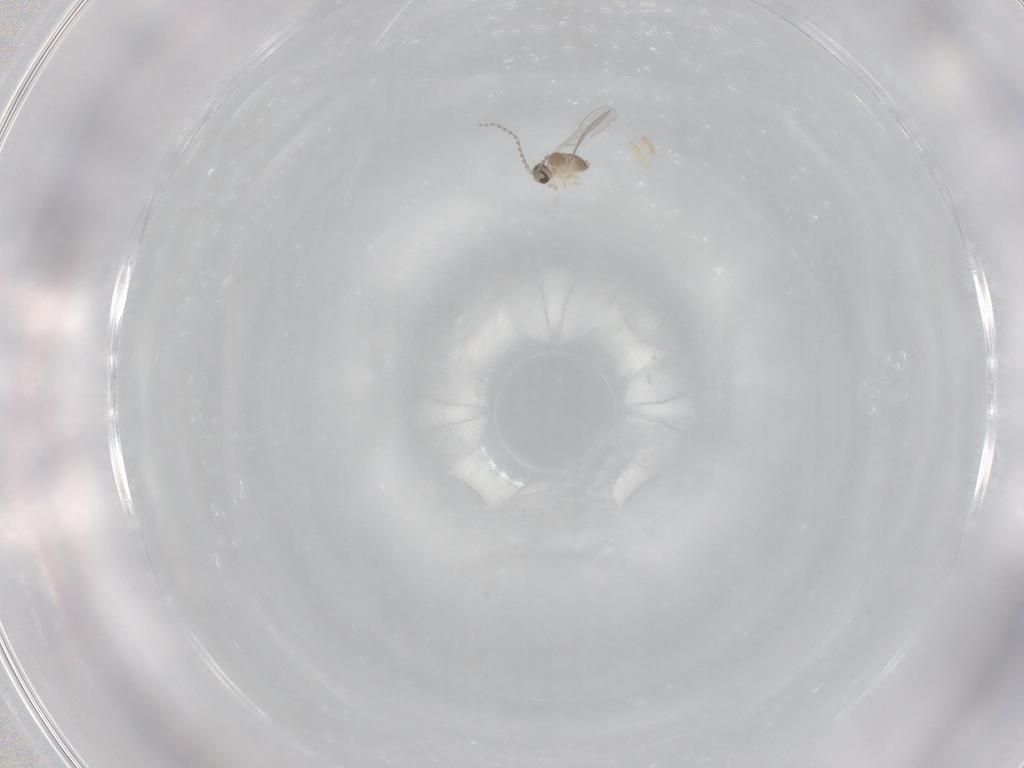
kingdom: Animalia
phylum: Arthropoda
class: Insecta
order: Diptera
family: Cecidomyiidae
